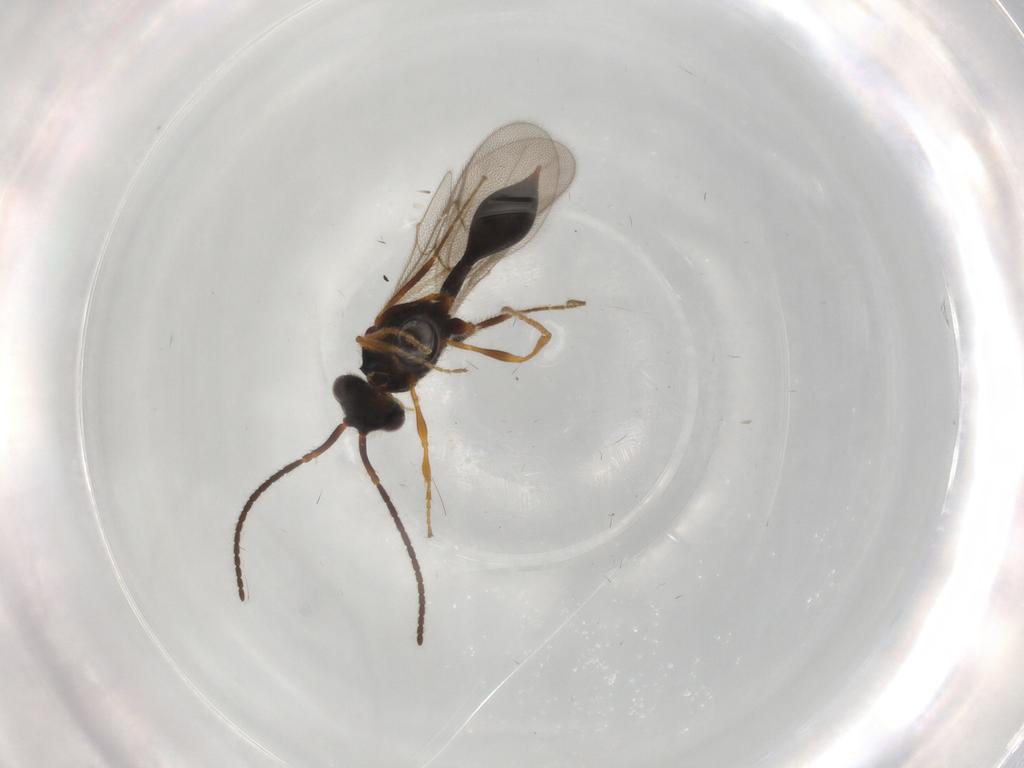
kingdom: Animalia
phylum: Arthropoda
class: Insecta
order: Hymenoptera
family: Diapriidae
